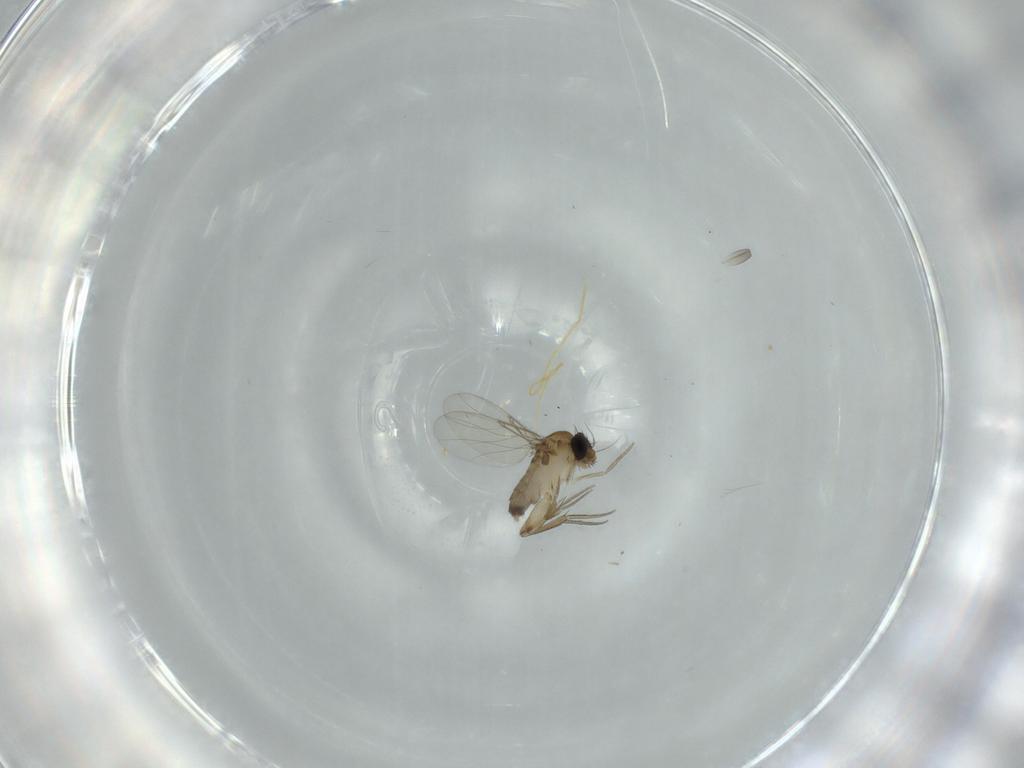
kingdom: Animalia
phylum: Arthropoda
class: Insecta
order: Diptera
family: Phoridae
